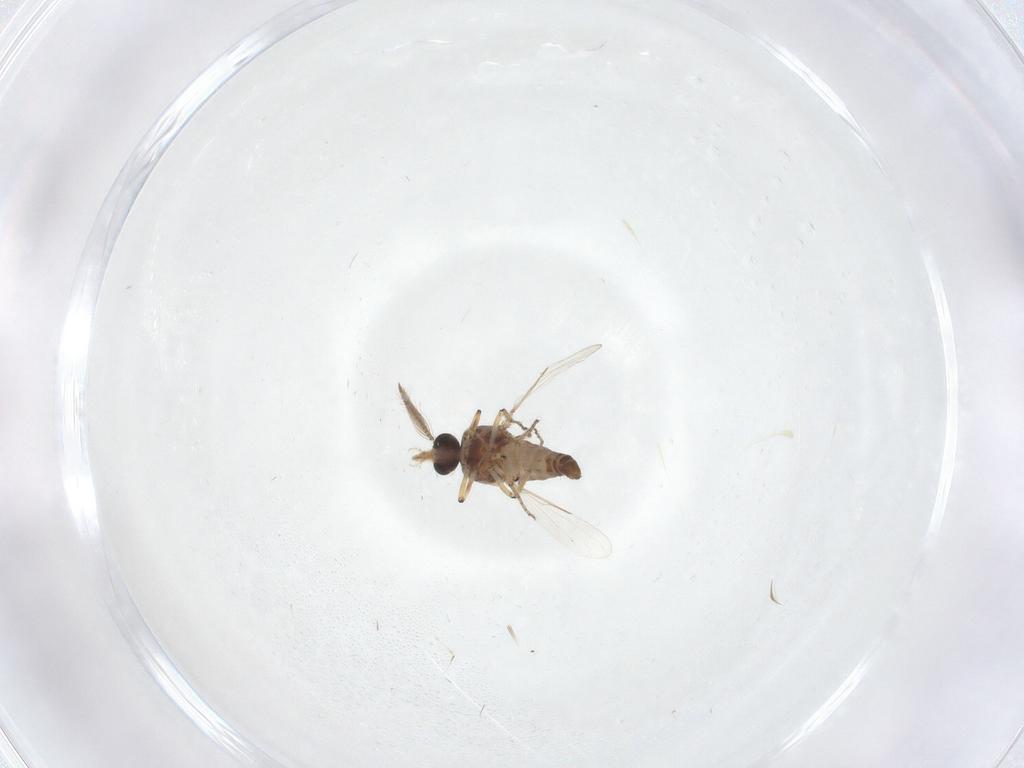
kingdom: Animalia
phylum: Arthropoda
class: Insecta
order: Diptera
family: Ceratopogonidae
